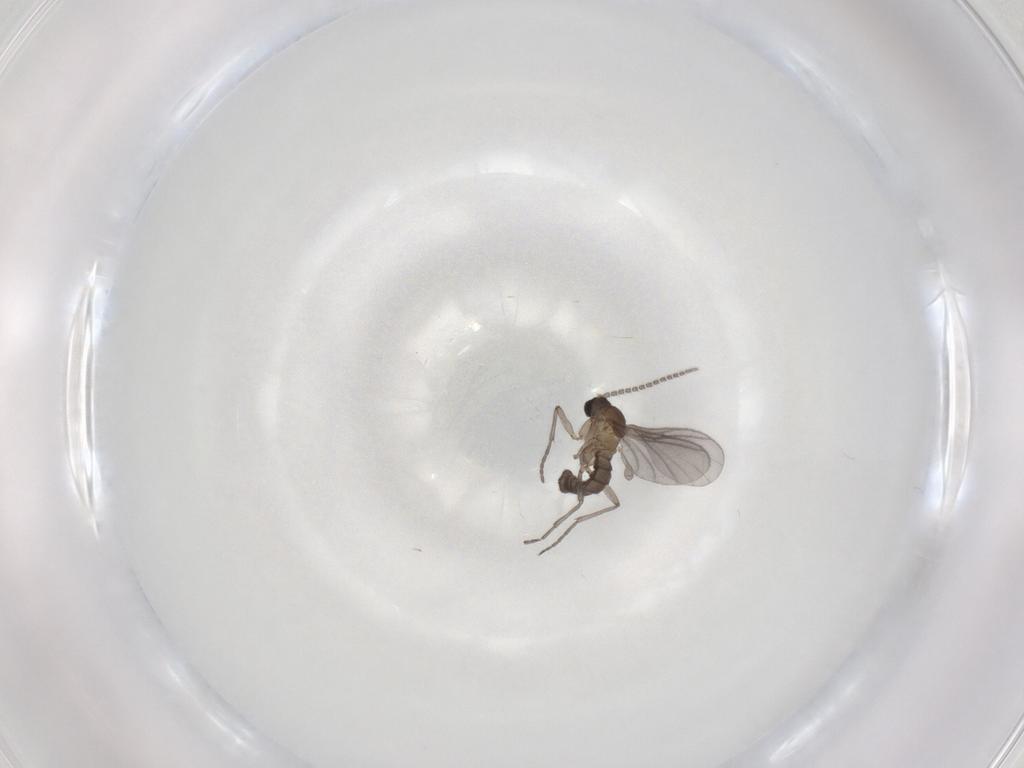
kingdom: Animalia
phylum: Arthropoda
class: Insecta
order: Diptera
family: Sciaridae
